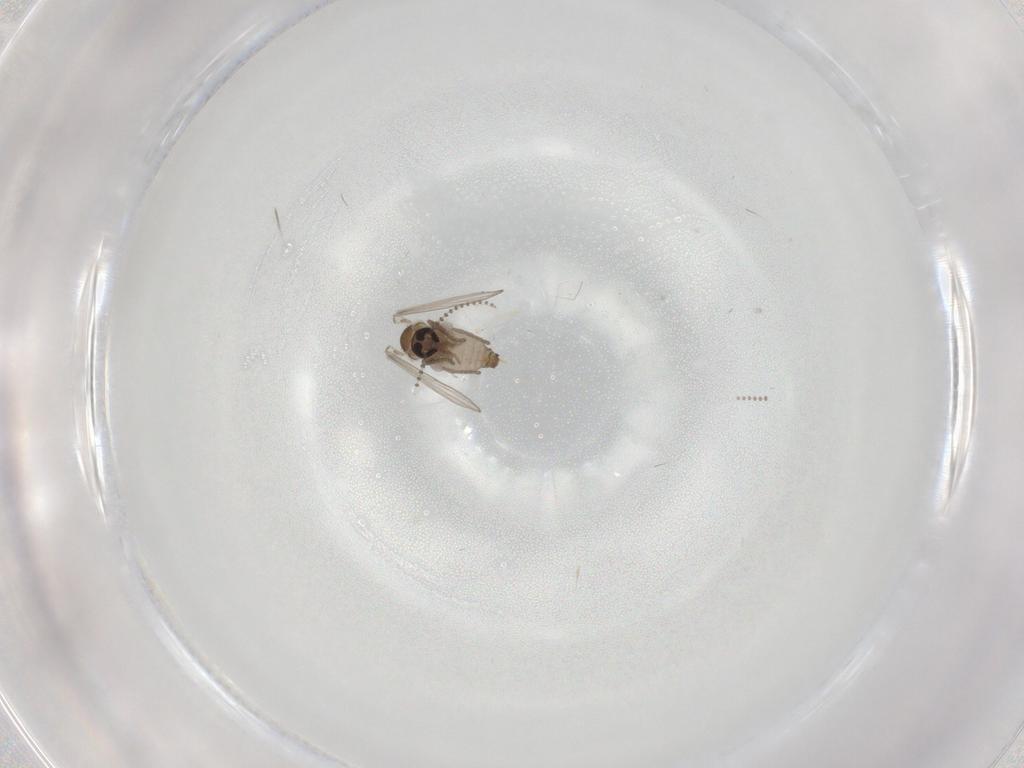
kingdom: Animalia
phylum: Arthropoda
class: Insecta
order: Diptera
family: Psychodidae
